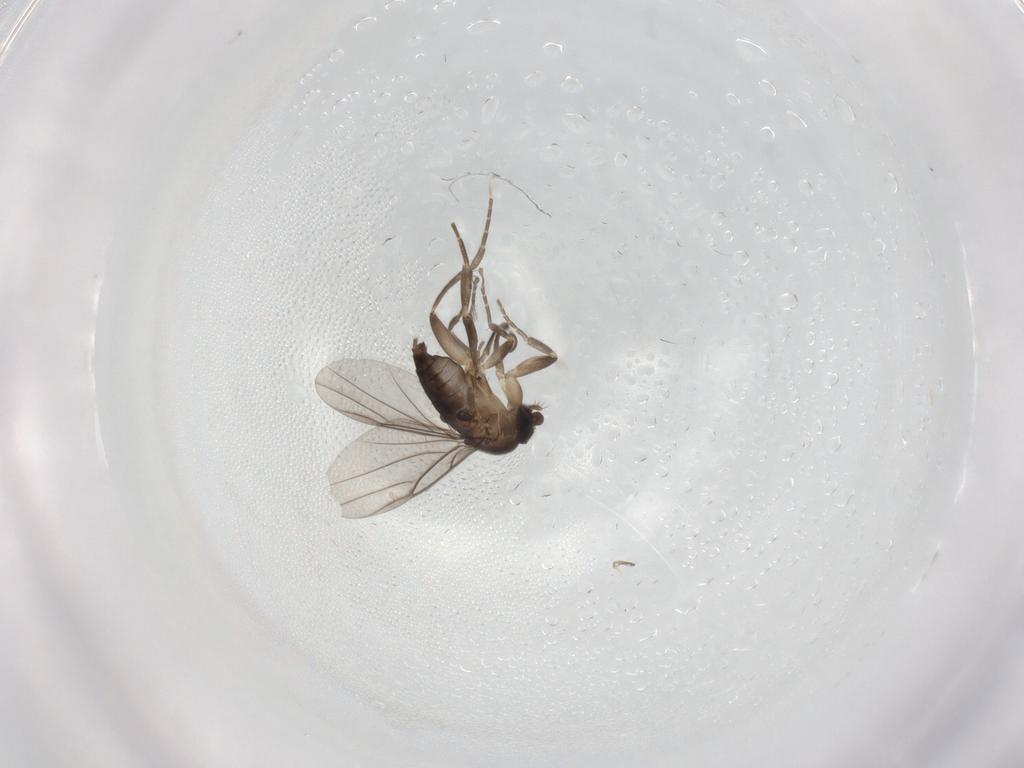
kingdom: Animalia
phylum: Arthropoda
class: Insecta
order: Diptera
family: Phoridae
